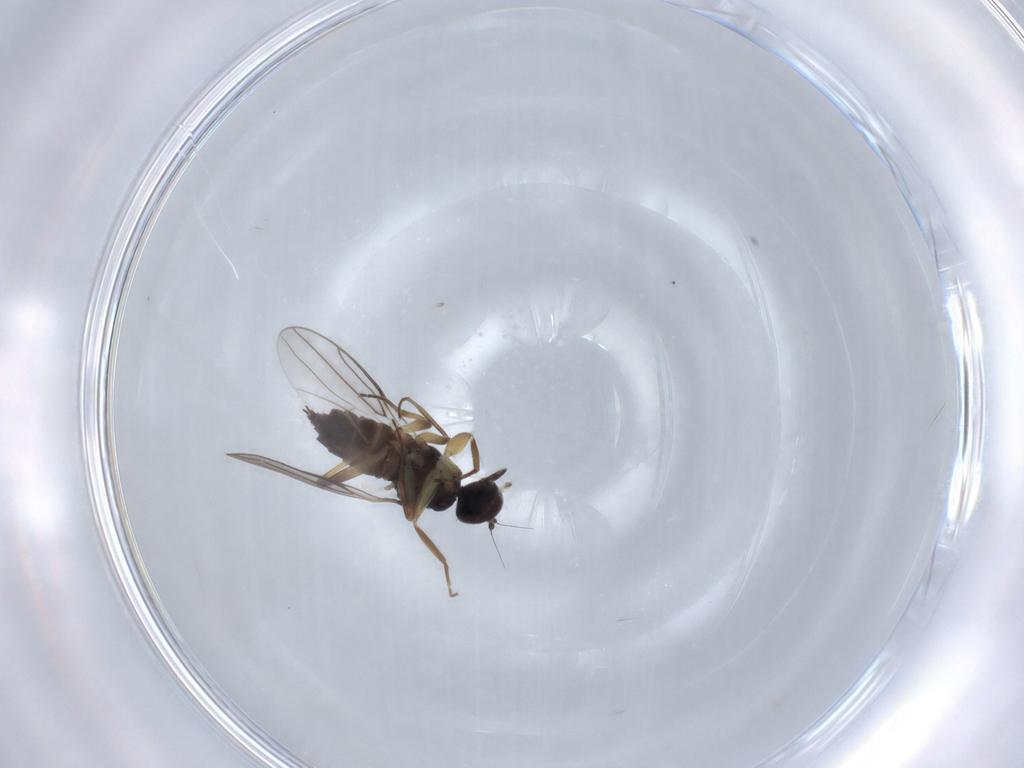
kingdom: Animalia
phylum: Arthropoda
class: Insecta
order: Diptera
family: Hybotidae
